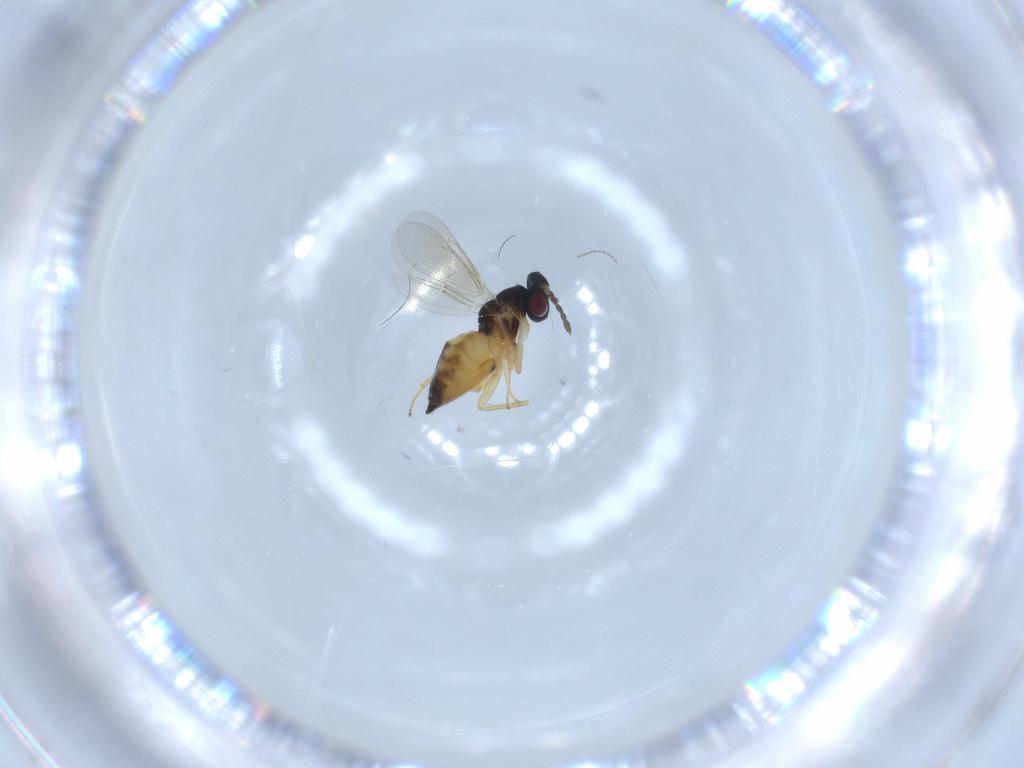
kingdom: Animalia
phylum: Arthropoda
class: Insecta
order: Hymenoptera
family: Eulophidae
